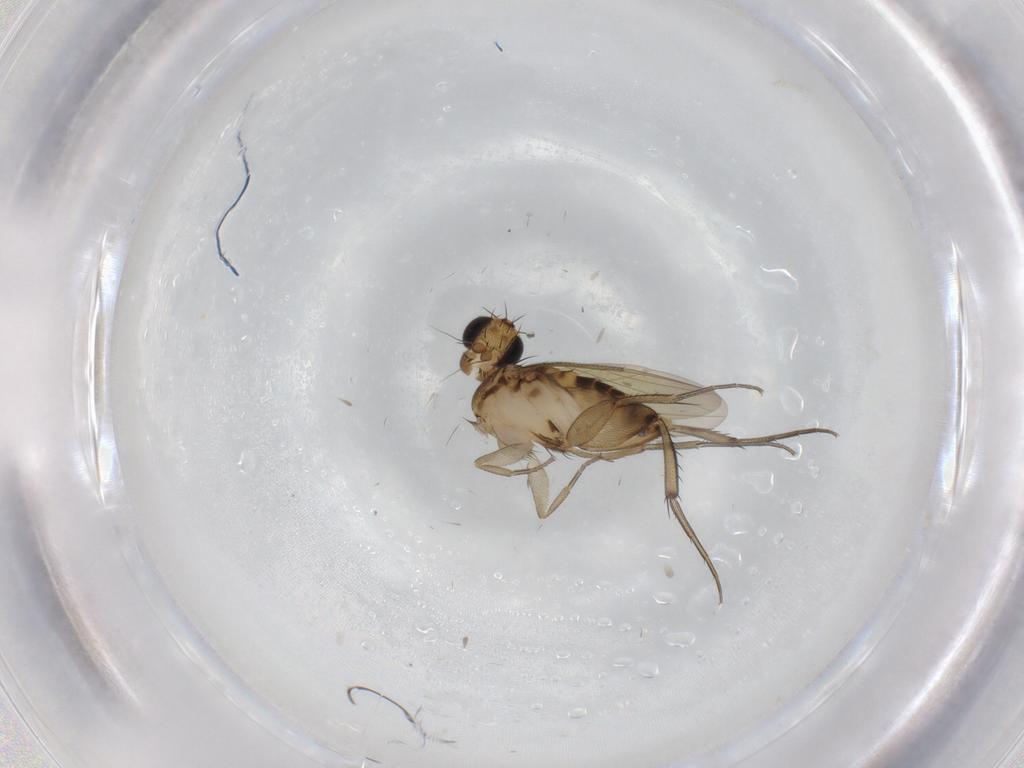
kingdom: Animalia
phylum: Arthropoda
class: Insecta
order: Diptera
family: Phoridae
